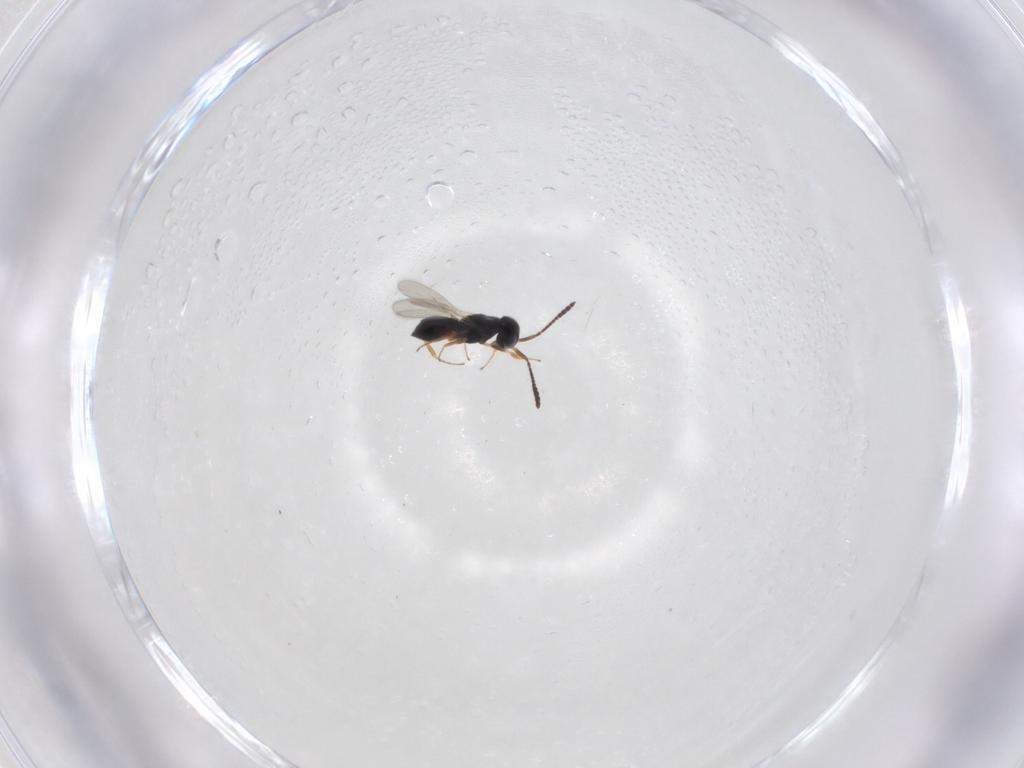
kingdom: Animalia
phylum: Arthropoda
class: Insecta
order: Hymenoptera
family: Scelionidae
